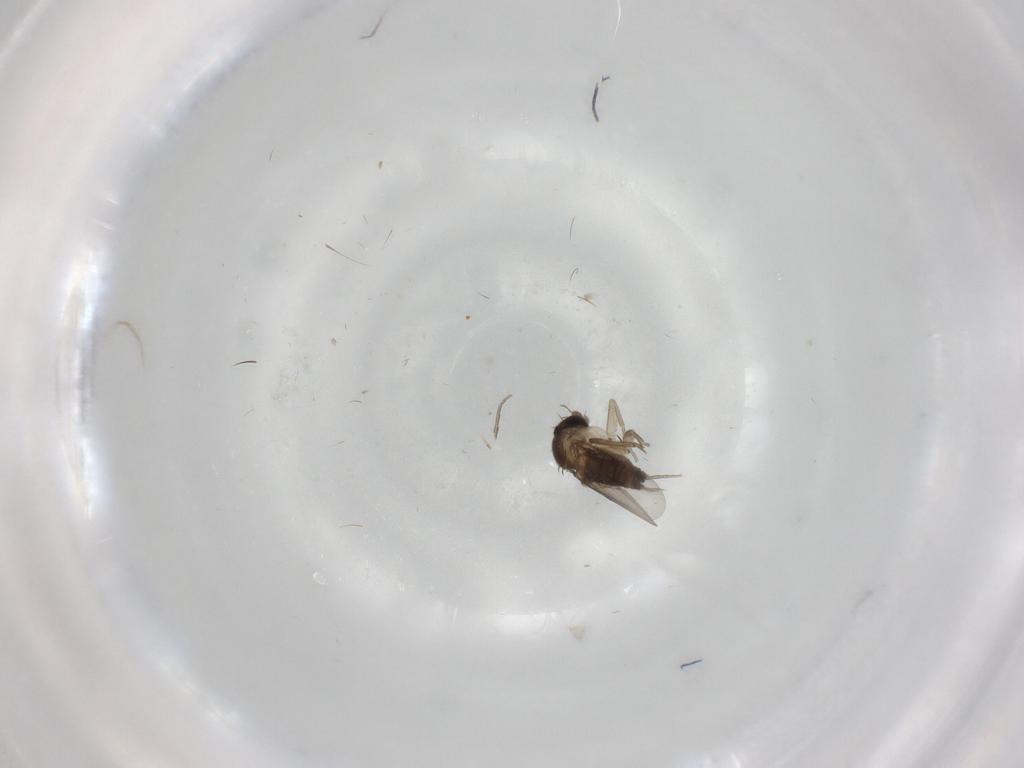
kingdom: Animalia
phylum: Arthropoda
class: Insecta
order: Diptera
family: Phoridae
